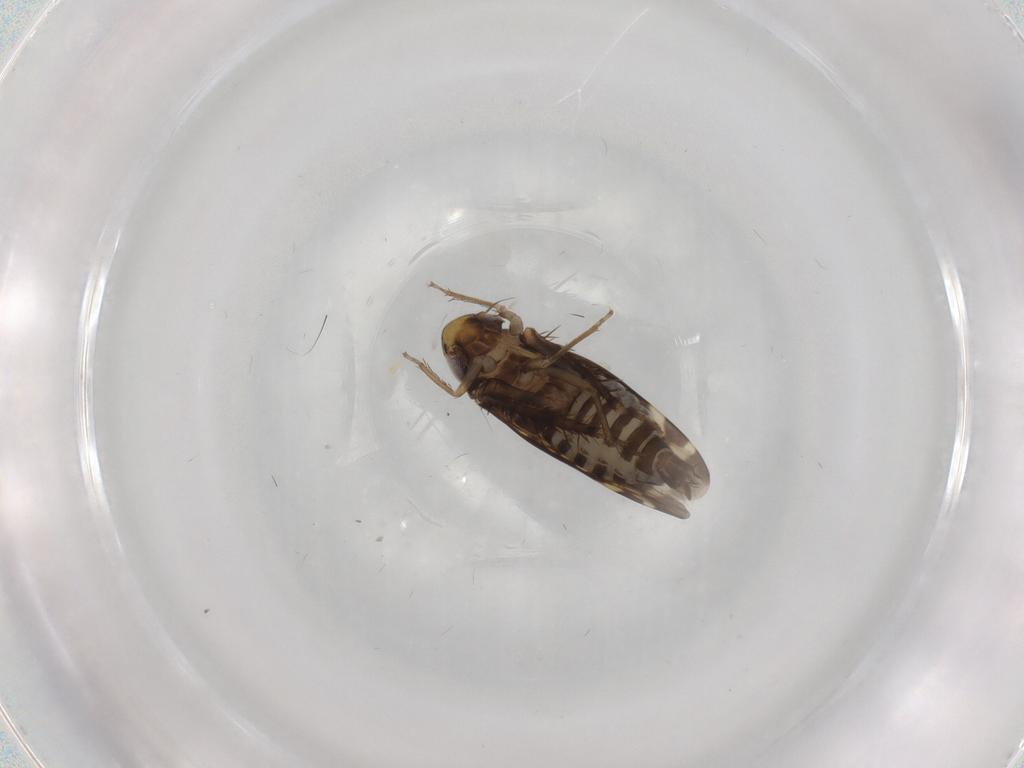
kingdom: Animalia
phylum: Arthropoda
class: Insecta
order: Hemiptera
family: Cicadellidae
